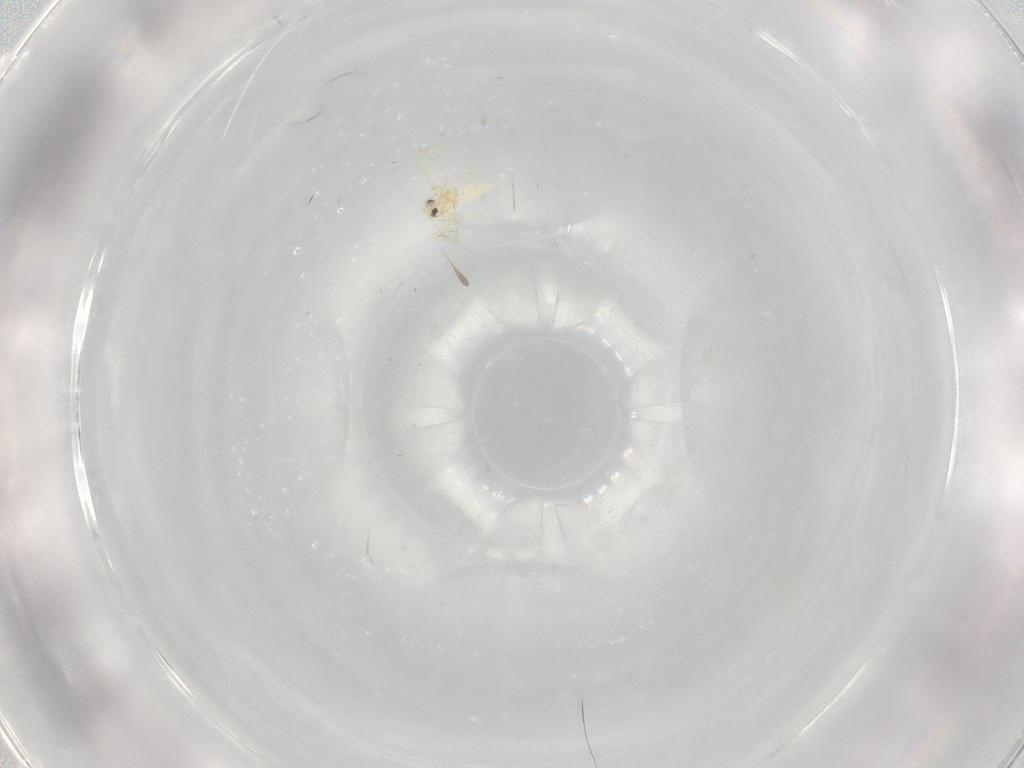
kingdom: Animalia
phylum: Arthropoda
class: Insecta
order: Hemiptera
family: Aleyrodidae
